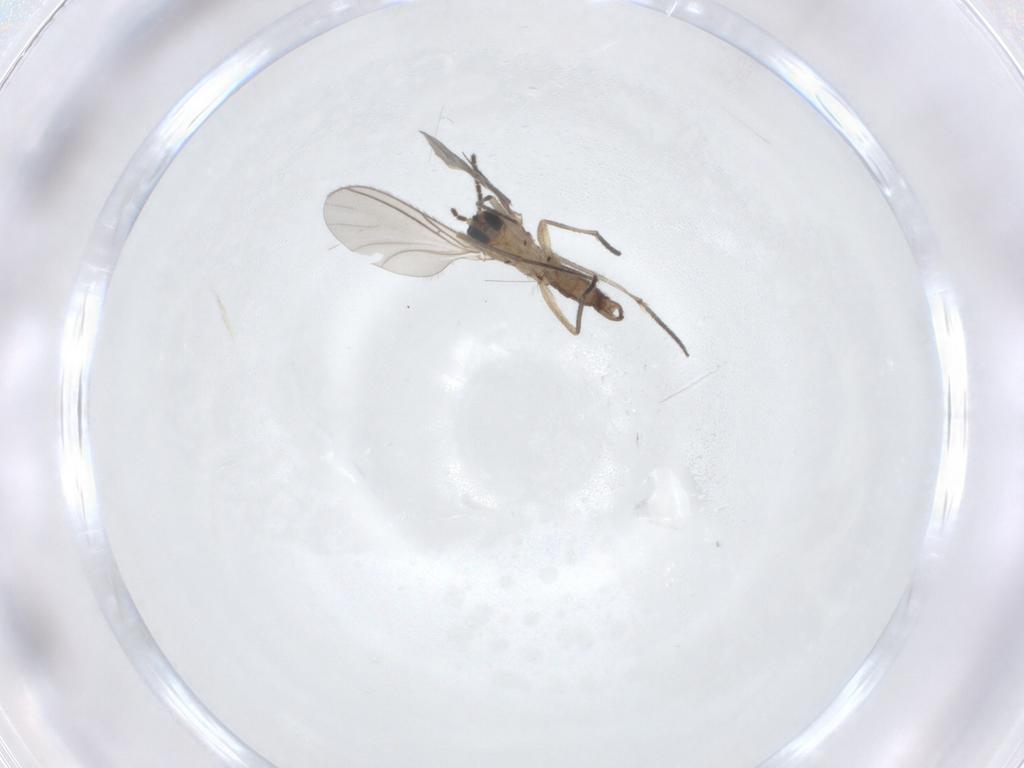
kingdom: Animalia
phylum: Arthropoda
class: Insecta
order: Diptera
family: Sciaridae
